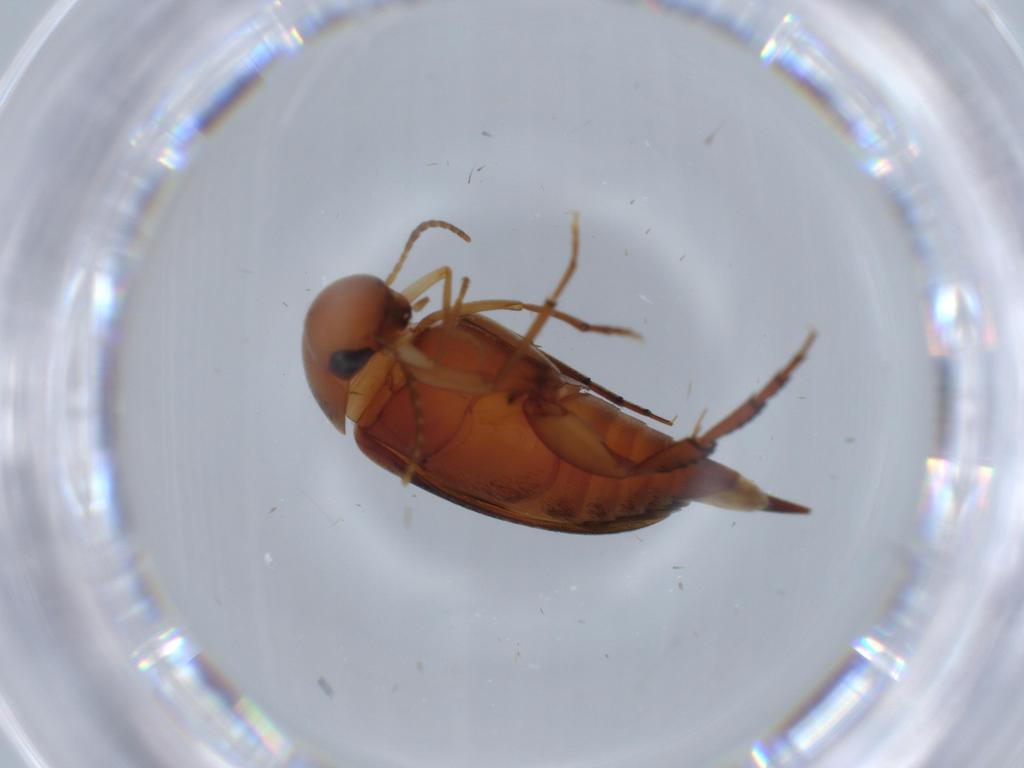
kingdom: Animalia
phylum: Arthropoda
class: Insecta
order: Coleoptera
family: Mordellidae
